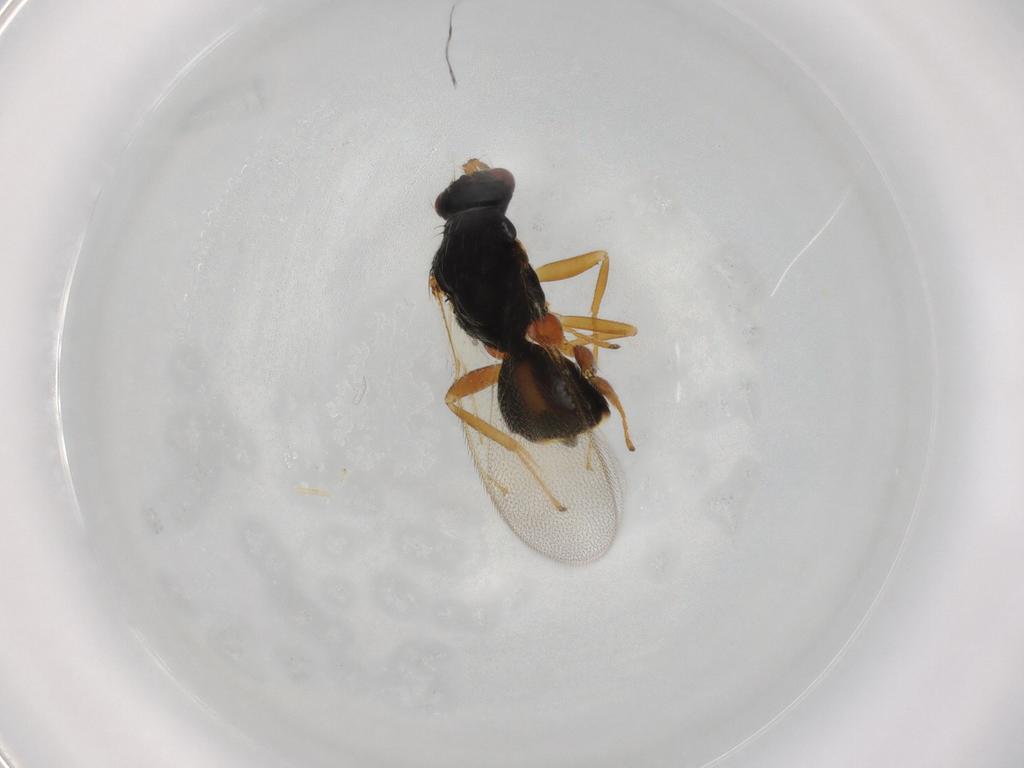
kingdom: Animalia
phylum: Arthropoda
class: Insecta
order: Hymenoptera
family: Eulophidae
